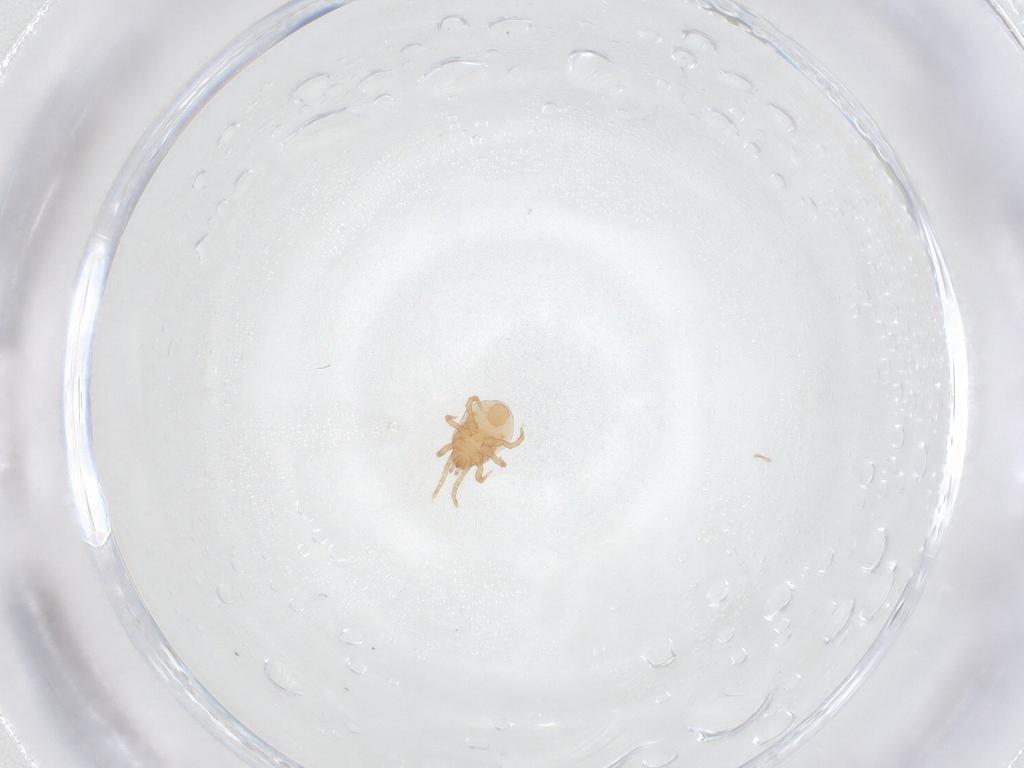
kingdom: Animalia
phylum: Arthropoda
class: Arachnida
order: Mesostigmata
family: Blattisociidae
